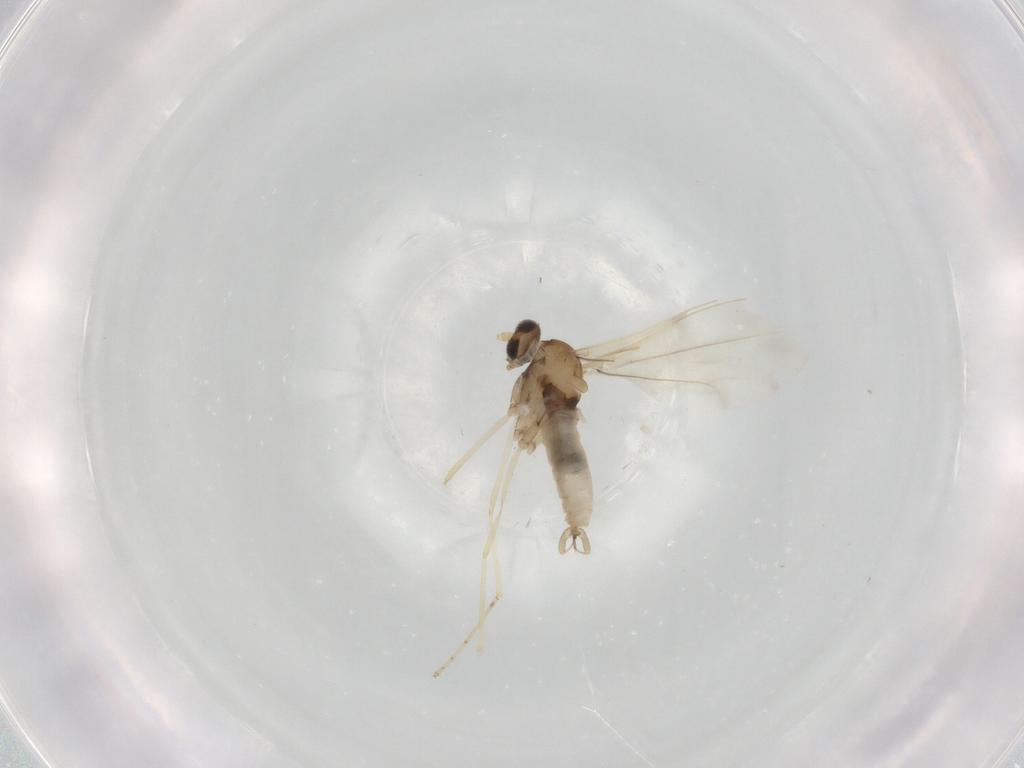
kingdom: Animalia
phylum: Arthropoda
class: Insecta
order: Diptera
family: Cecidomyiidae
